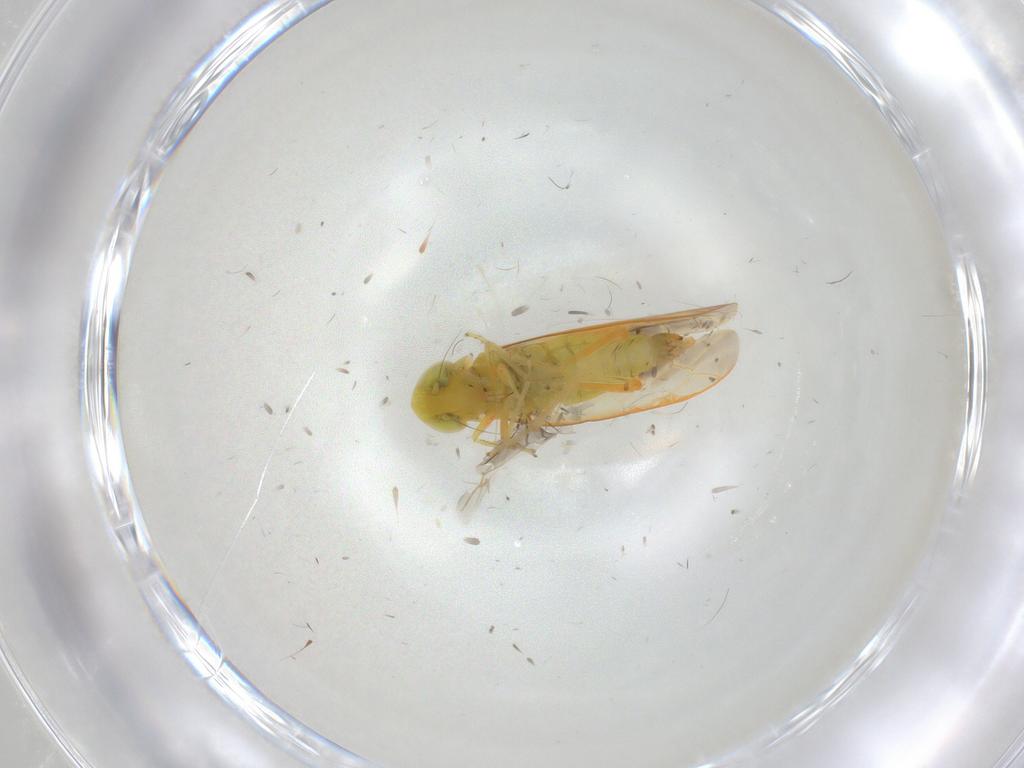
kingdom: Animalia
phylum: Arthropoda
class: Insecta
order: Hemiptera
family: Cicadellidae
